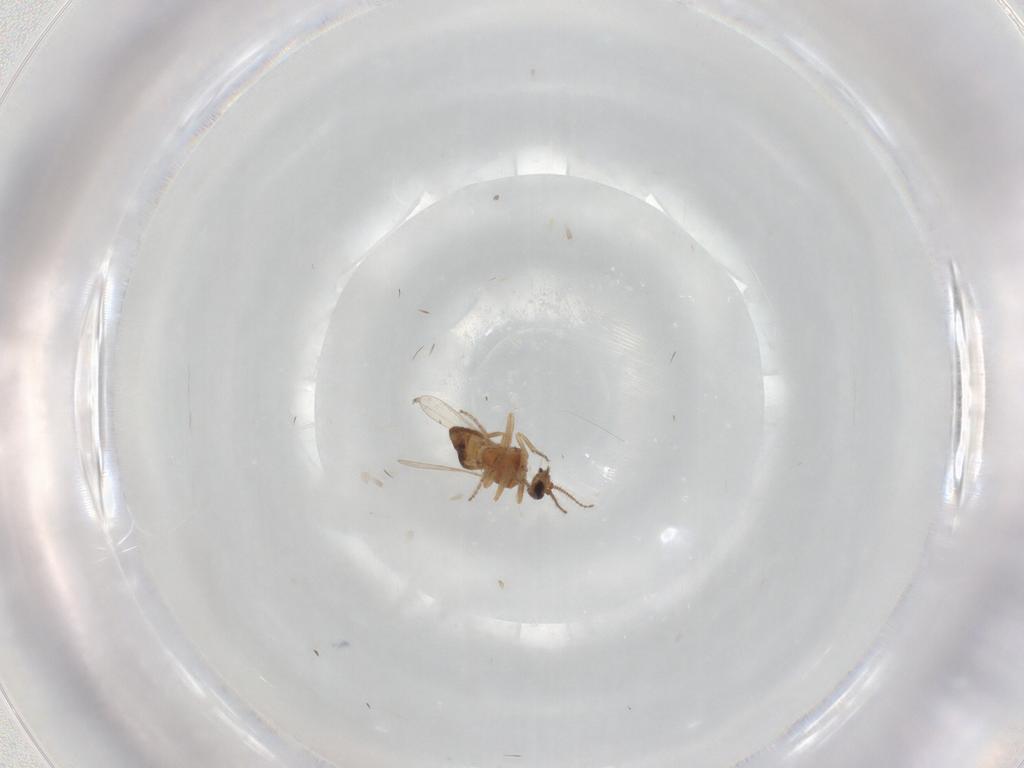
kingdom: Animalia
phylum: Arthropoda
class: Insecta
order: Diptera
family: Ceratopogonidae
